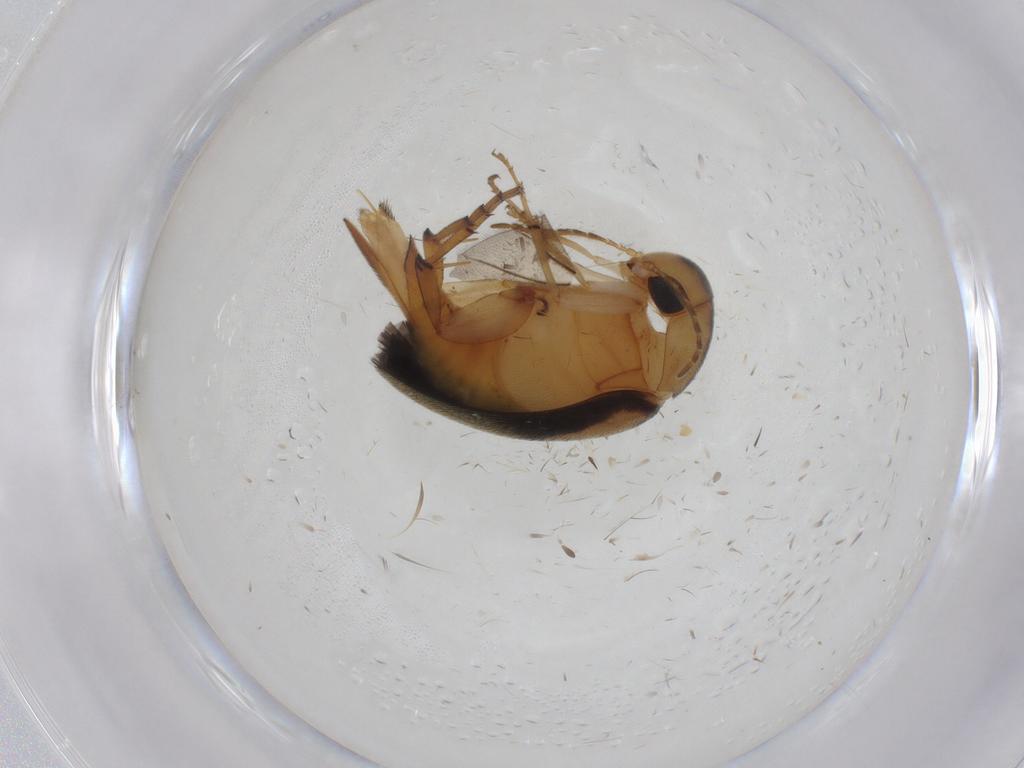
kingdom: Animalia
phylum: Arthropoda
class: Insecta
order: Coleoptera
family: Mordellidae
